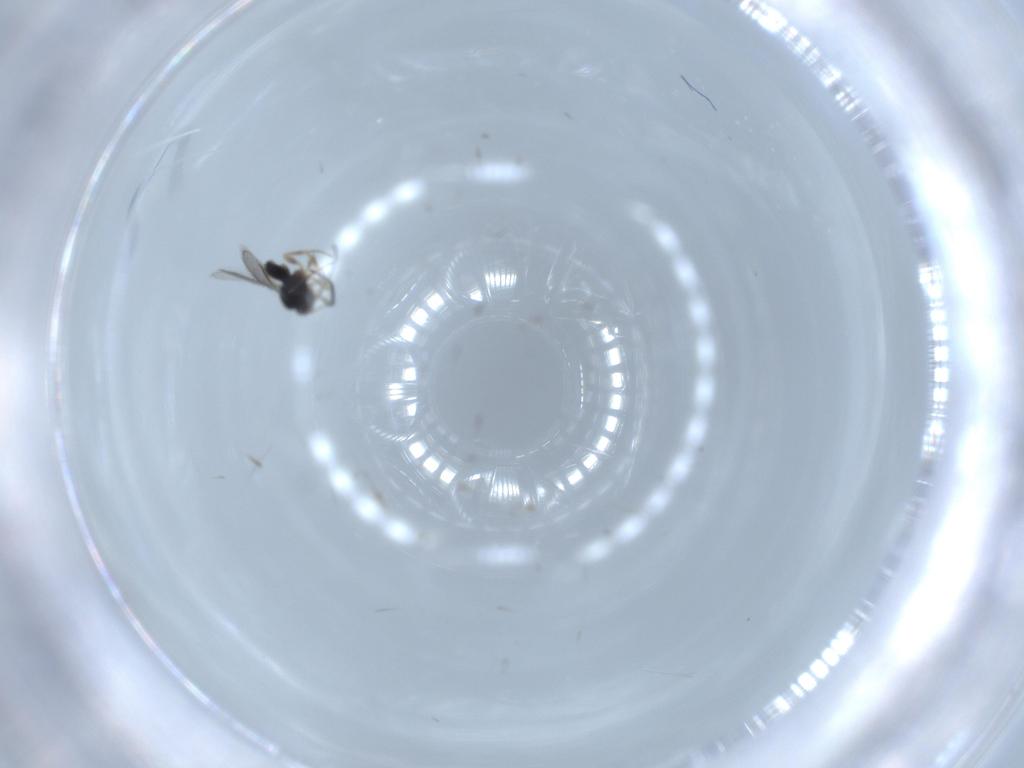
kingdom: Animalia
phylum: Arthropoda
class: Insecta
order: Hymenoptera
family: Scelionidae
